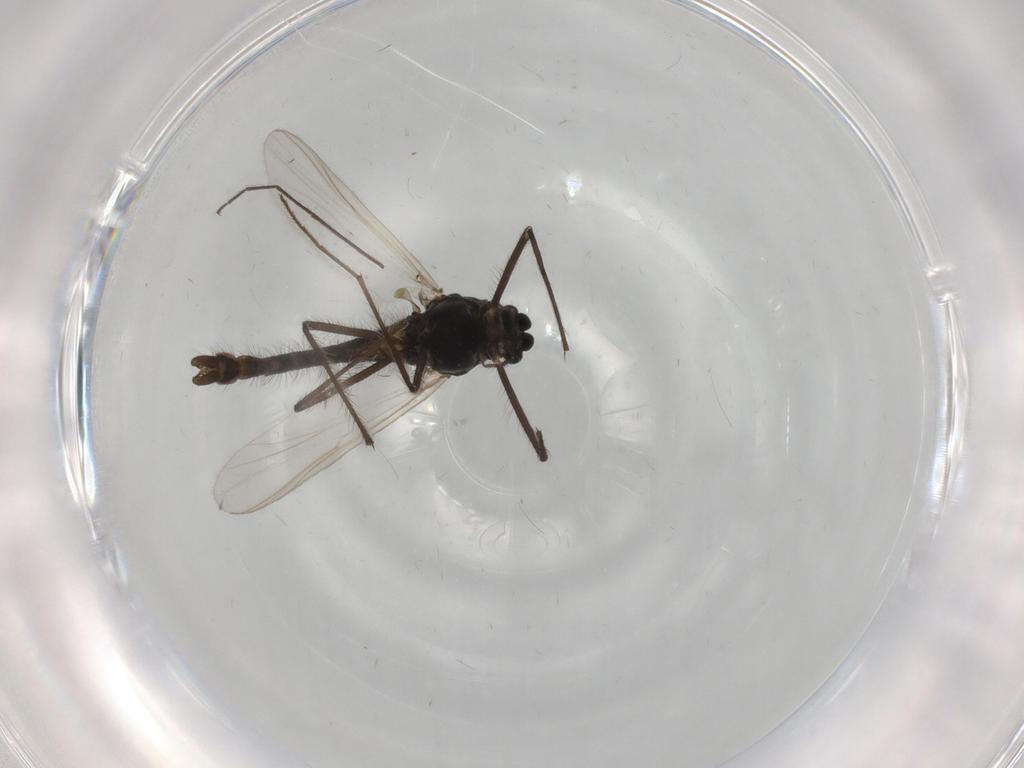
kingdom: Animalia
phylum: Arthropoda
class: Insecta
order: Diptera
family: Chironomidae
